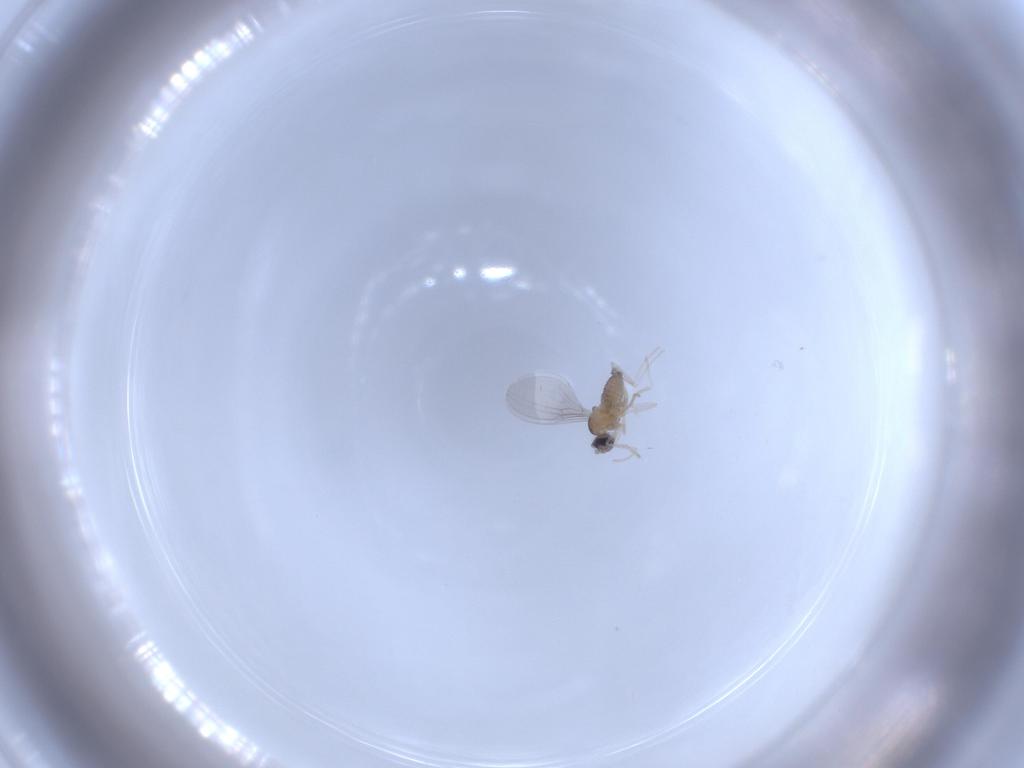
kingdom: Animalia
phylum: Arthropoda
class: Insecta
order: Diptera
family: Cecidomyiidae
